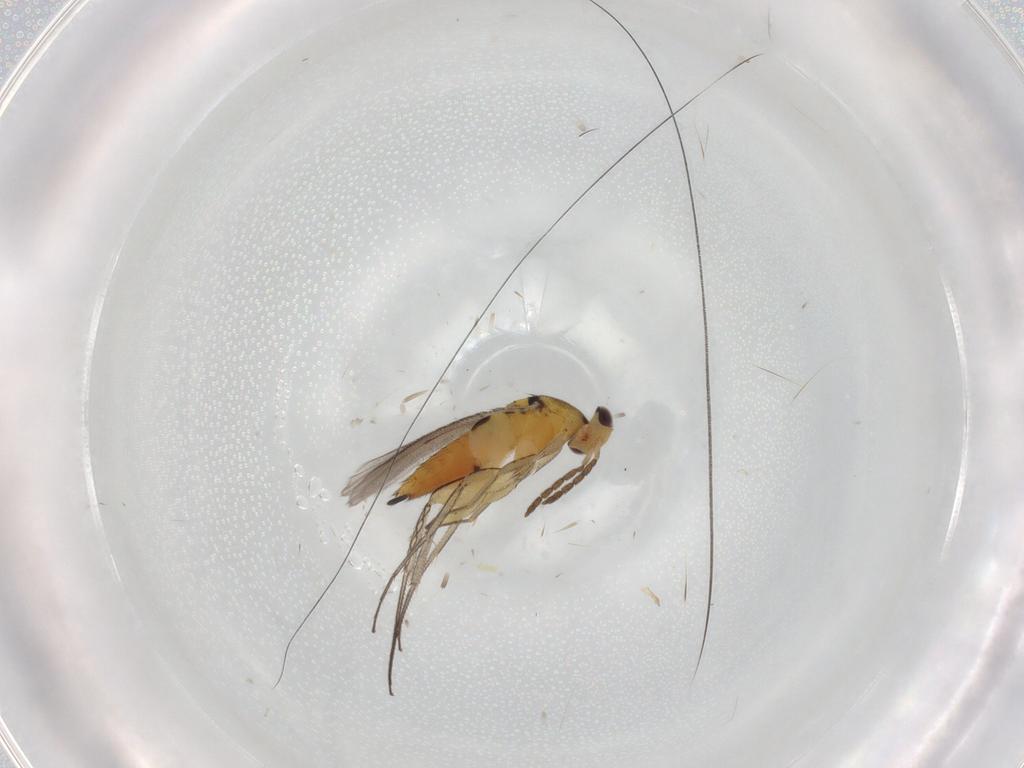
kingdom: Animalia
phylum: Arthropoda
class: Insecta
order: Hymenoptera
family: Eulophidae
